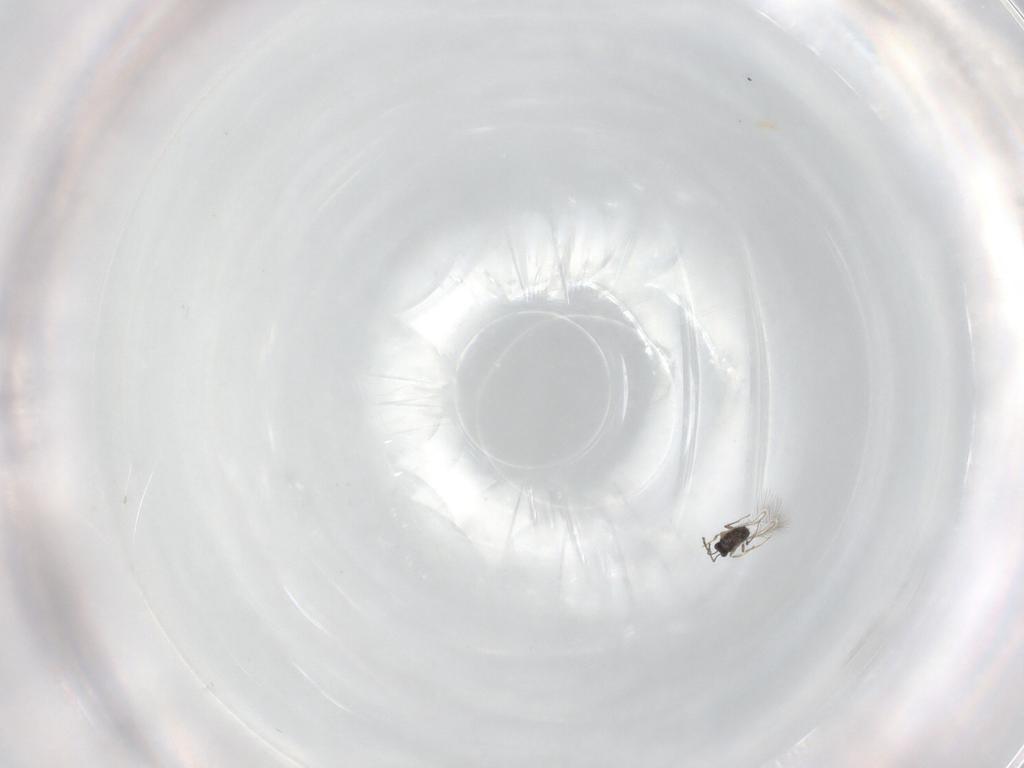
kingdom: Animalia
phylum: Arthropoda
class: Insecta
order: Hymenoptera
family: Mymaridae
